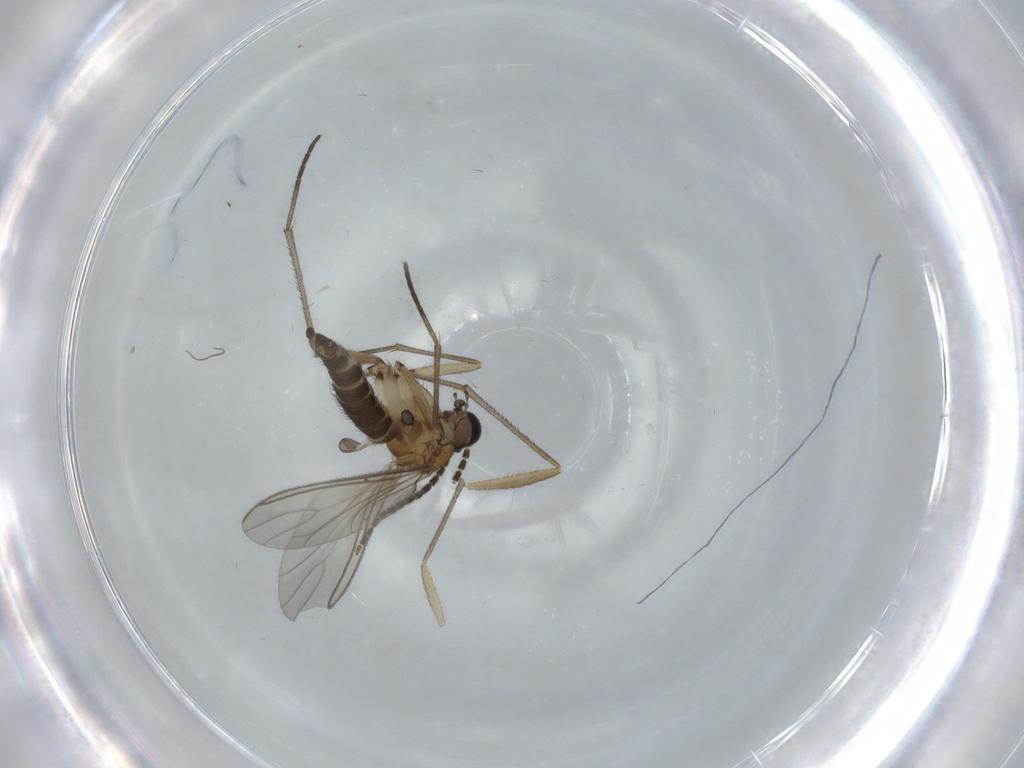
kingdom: Animalia
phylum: Arthropoda
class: Insecta
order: Diptera
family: Sciaridae
